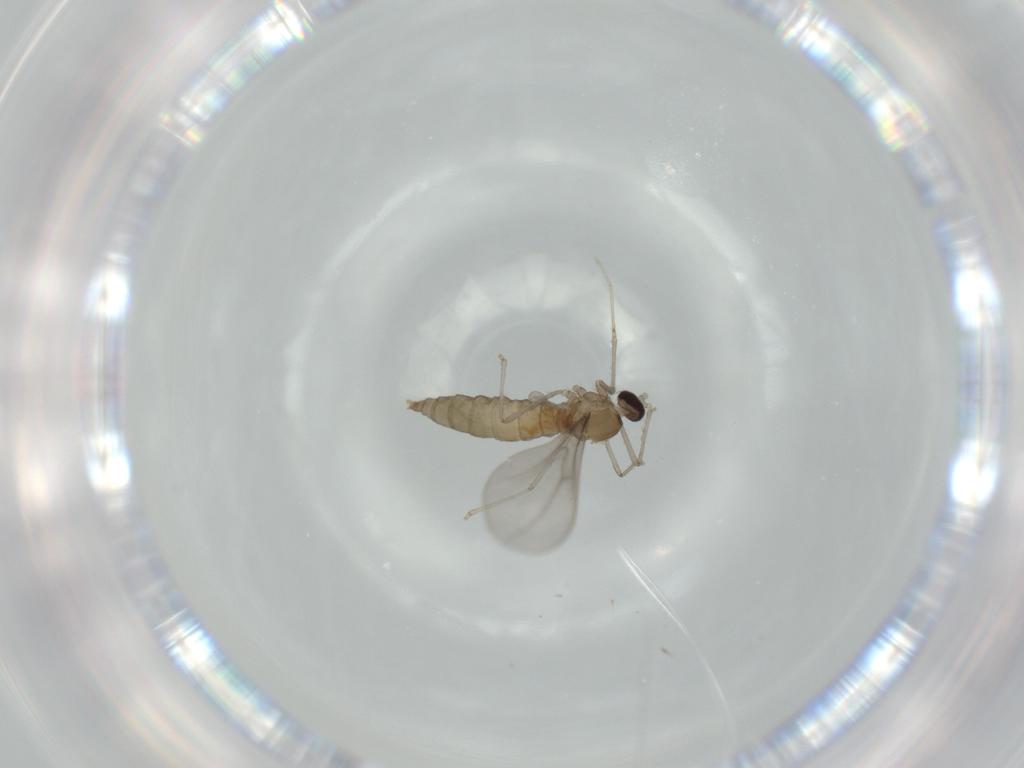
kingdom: Animalia
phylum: Arthropoda
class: Insecta
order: Diptera
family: Cecidomyiidae
